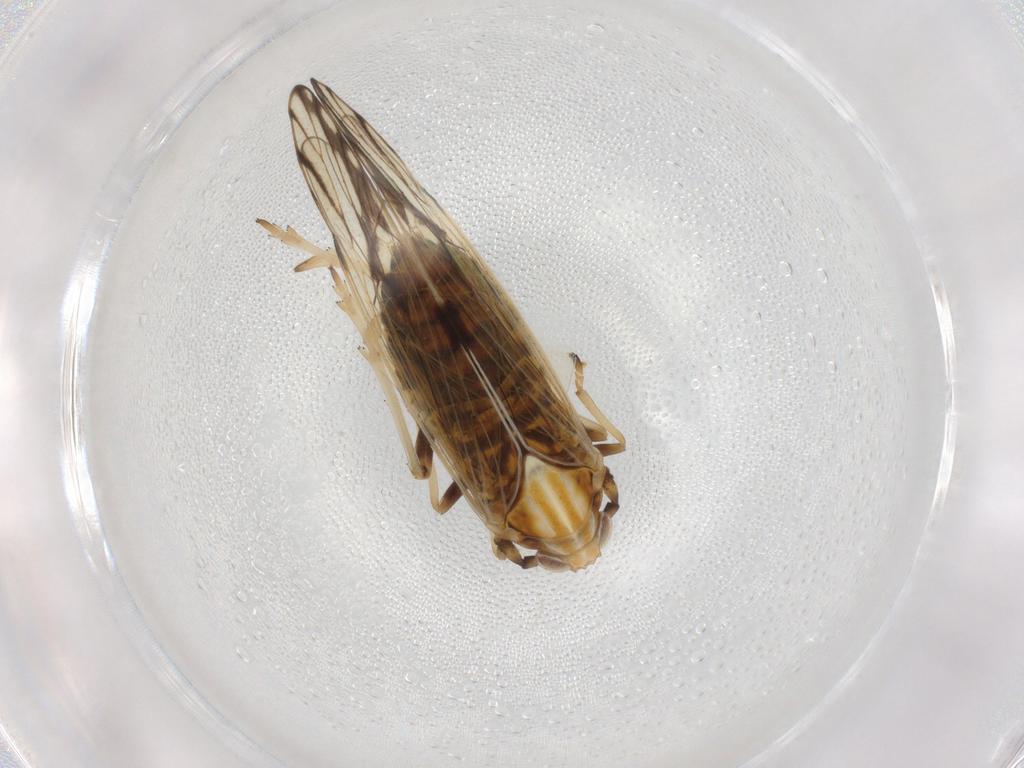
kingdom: Animalia
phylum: Arthropoda
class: Insecta
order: Hemiptera
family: Delphacidae
